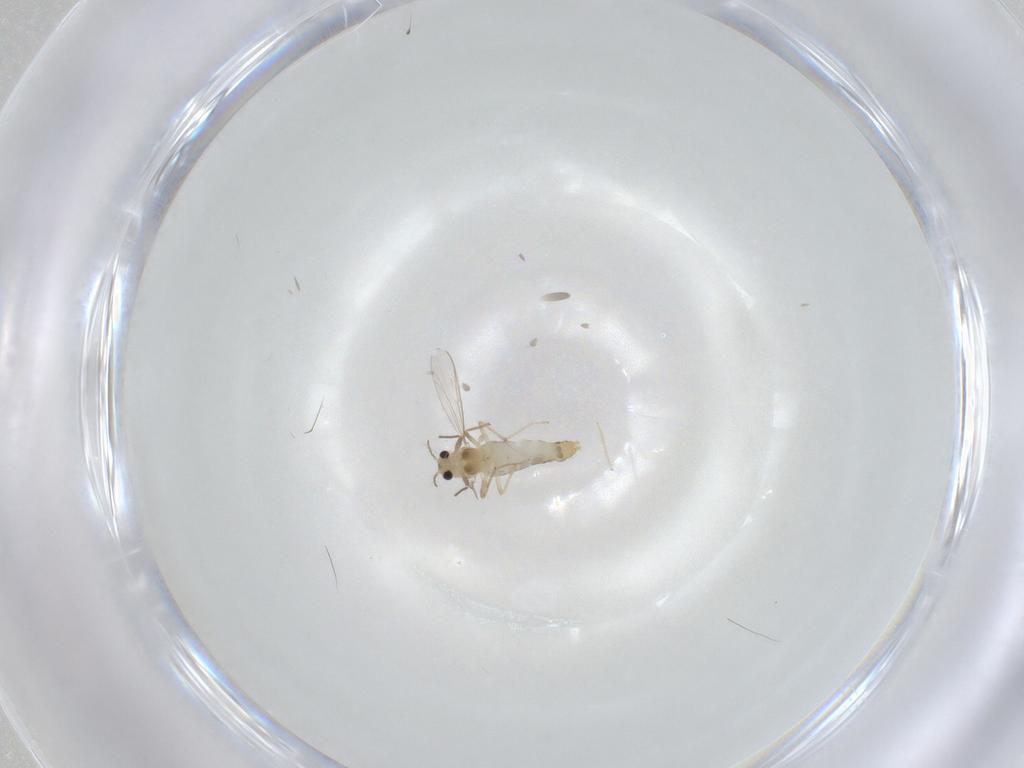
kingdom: Animalia
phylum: Arthropoda
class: Insecta
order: Diptera
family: Chironomidae
